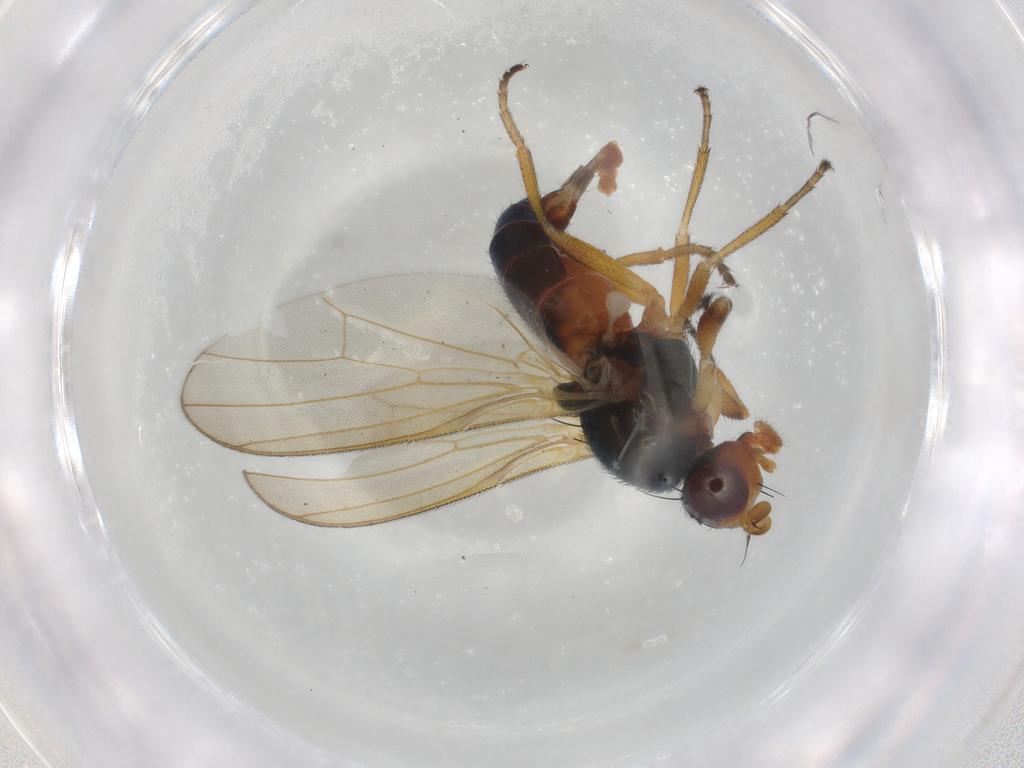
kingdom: Animalia
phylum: Arthropoda
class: Insecta
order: Diptera
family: Piophilidae
